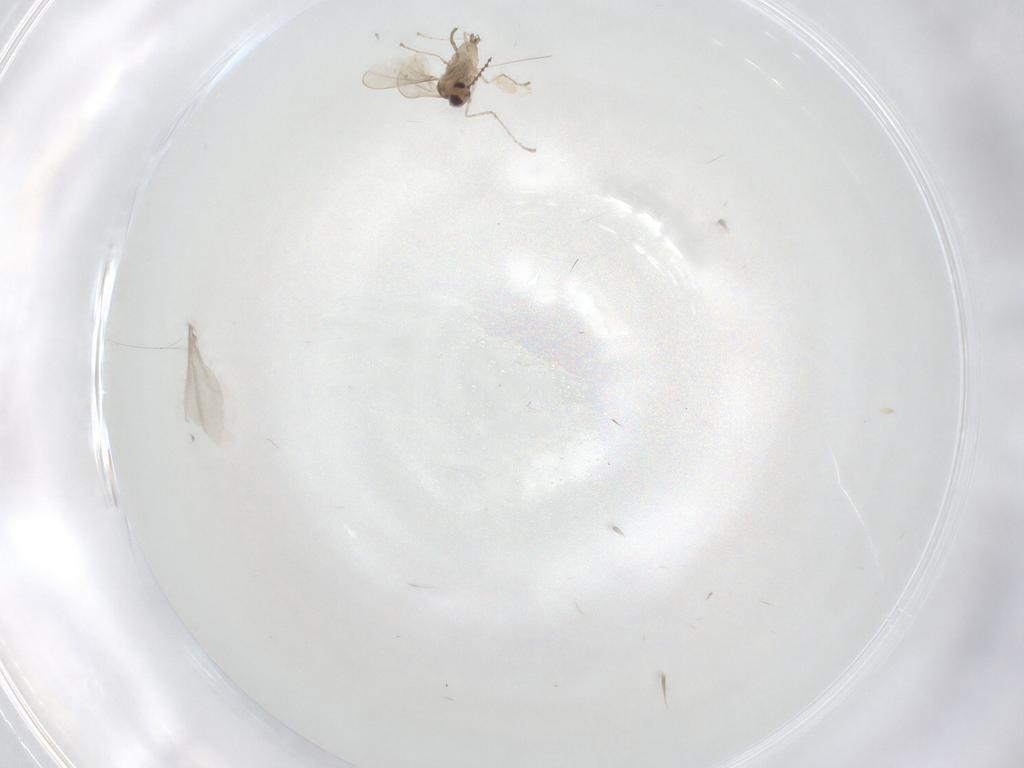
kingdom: Animalia
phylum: Arthropoda
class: Insecta
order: Diptera
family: Cecidomyiidae
